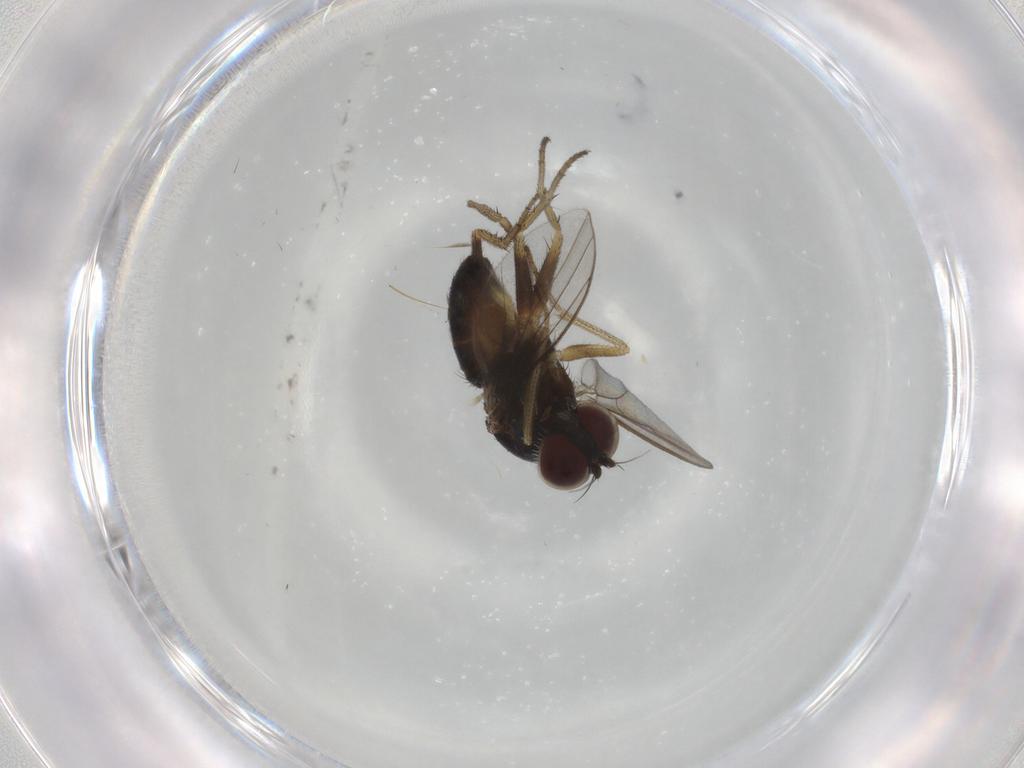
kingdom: Animalia
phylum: Arthropoda
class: Insecta
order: Diptera
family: Dolichopodidae
